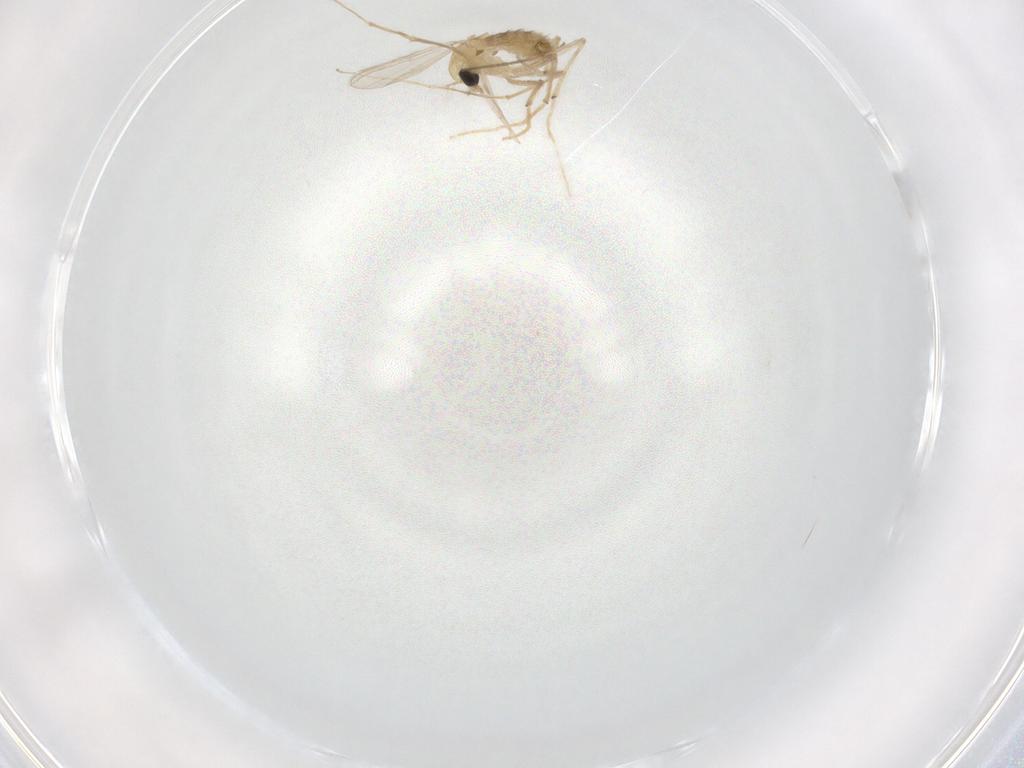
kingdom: Animalia
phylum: Arthropoda
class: Insecta
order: Diptera
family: Chironomidae
